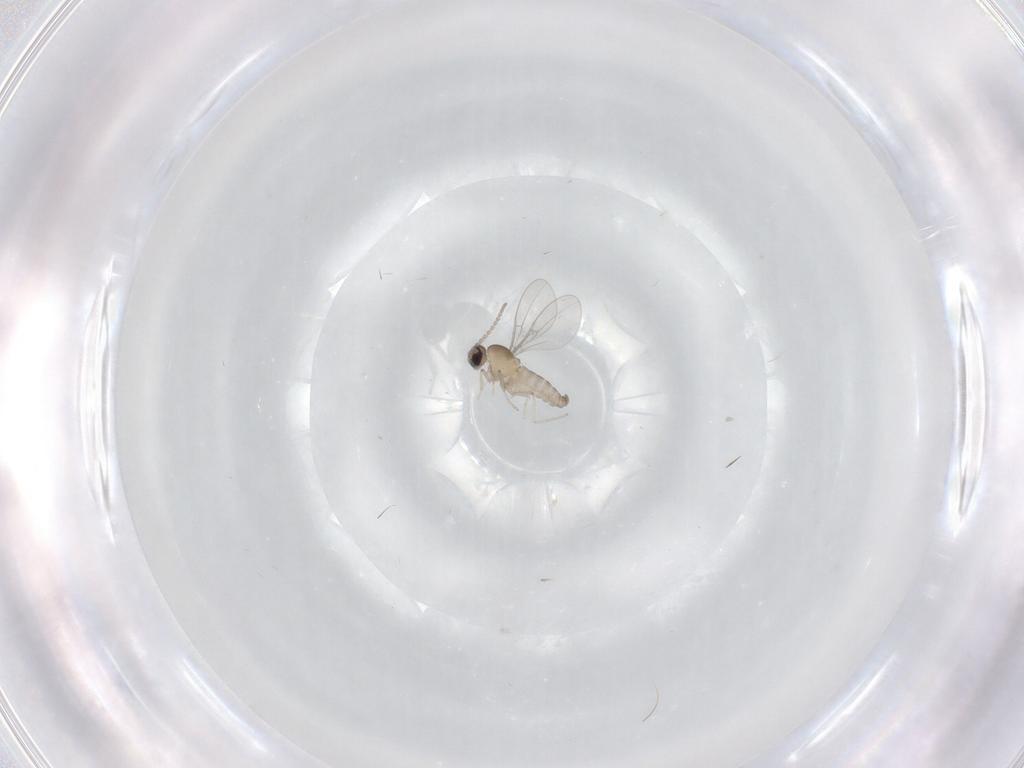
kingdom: Animalia
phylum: Arthropoda
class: Insecta
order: Diptera
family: Cecidomyiidae
